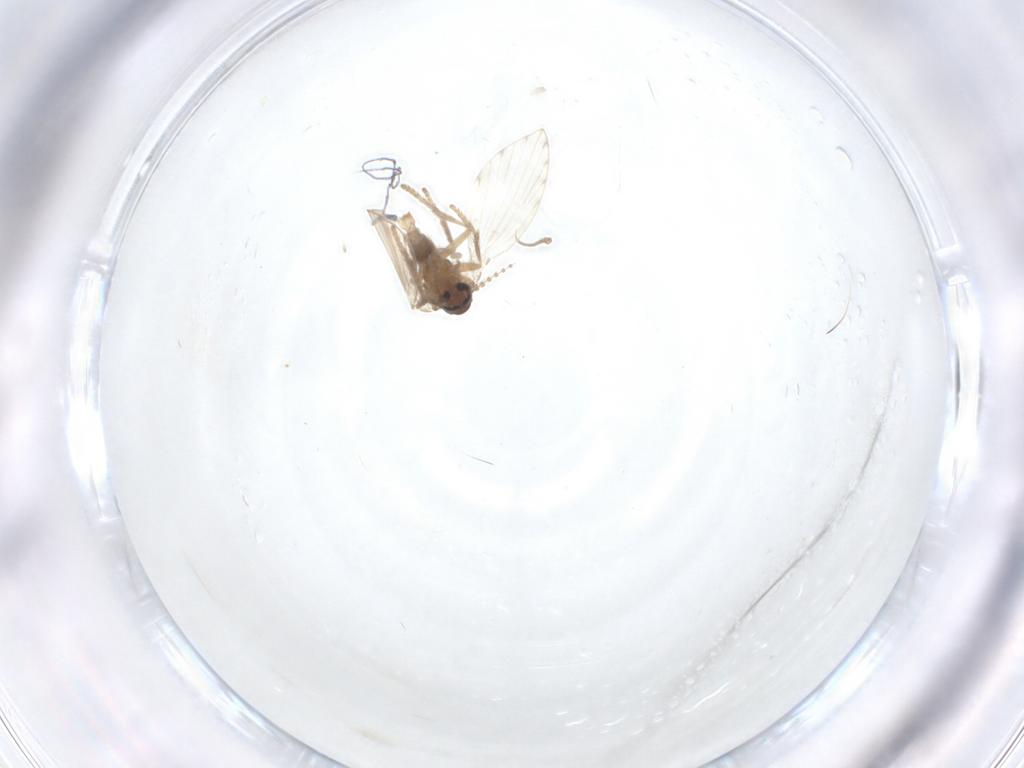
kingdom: Animalia
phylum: Arthropoda
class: Insecta
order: Diptera
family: Psychodidae
